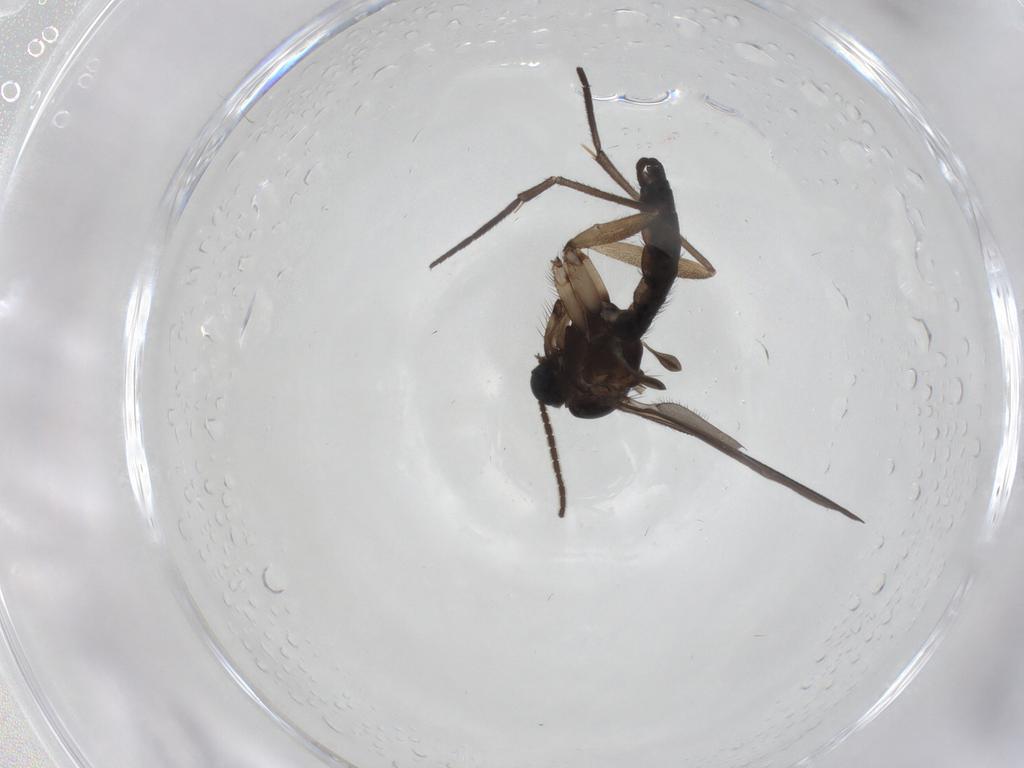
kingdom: Animalia
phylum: Arthropoda
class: Insecta
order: Diptera
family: Sciaridae
